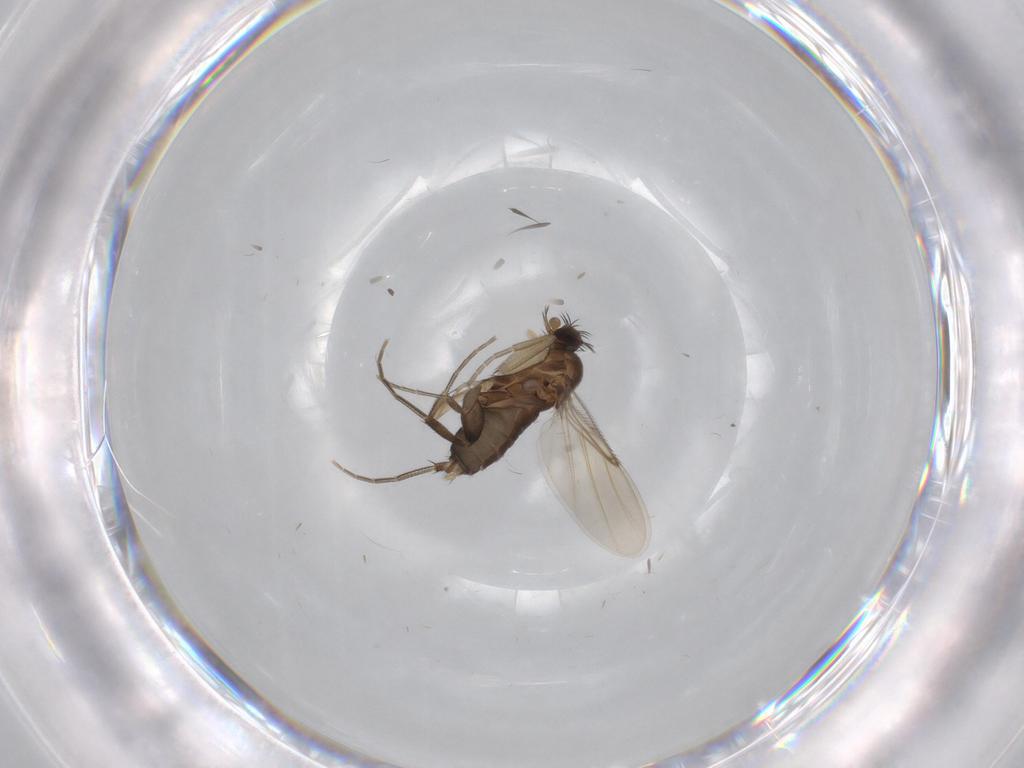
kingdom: Animalia
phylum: Arthropoda
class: Insecta
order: Diptera
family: Phoridae
